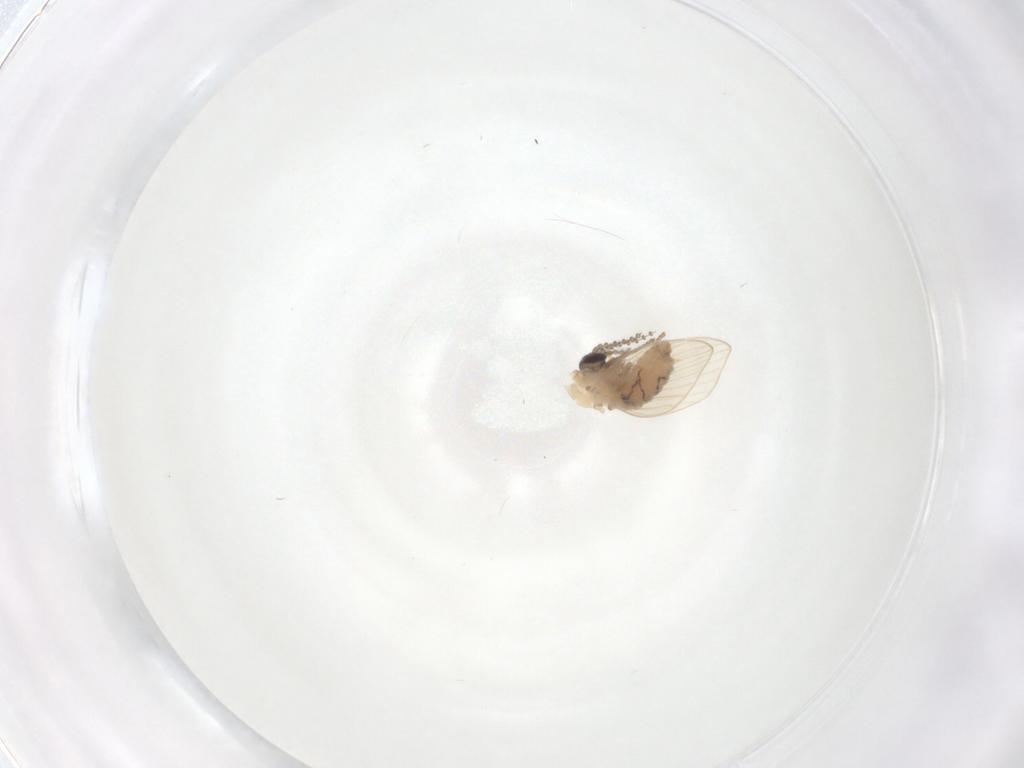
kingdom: Animalia
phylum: Arthropoda
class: Insecta
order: Diptera
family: Psychodidae
